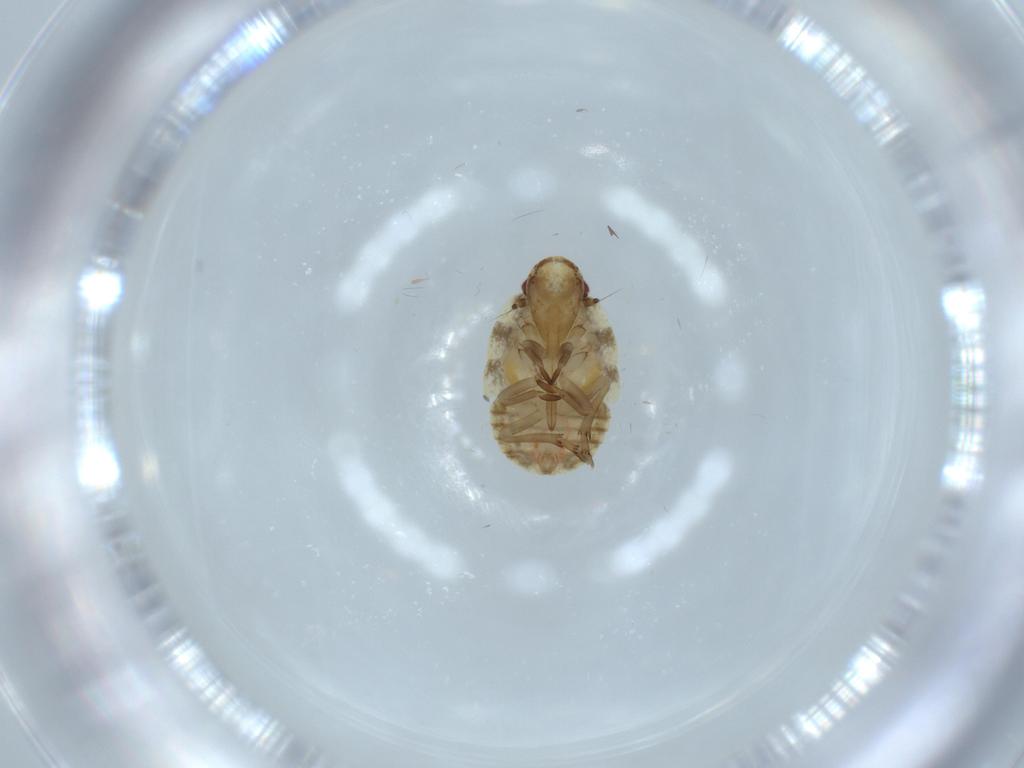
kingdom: Animalia
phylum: Arthropoda
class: Insecta
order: Hemiptera
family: Flatidae
